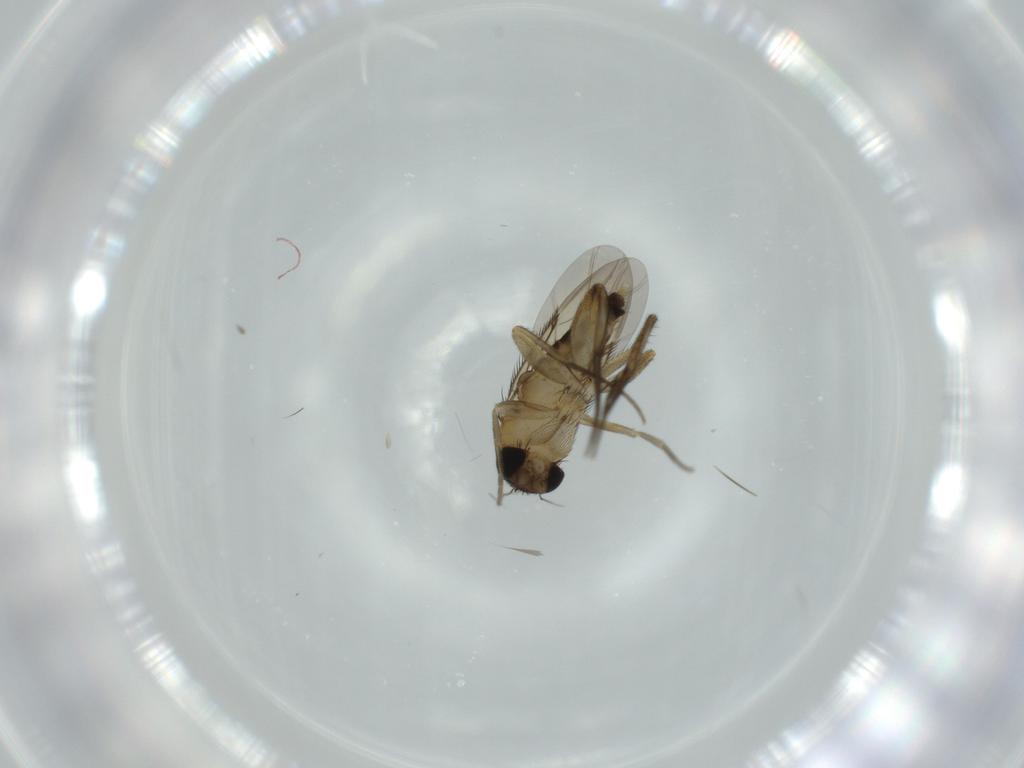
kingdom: Animalia
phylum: Arthropoda
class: Insecta
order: Diptera
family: Phoridae
